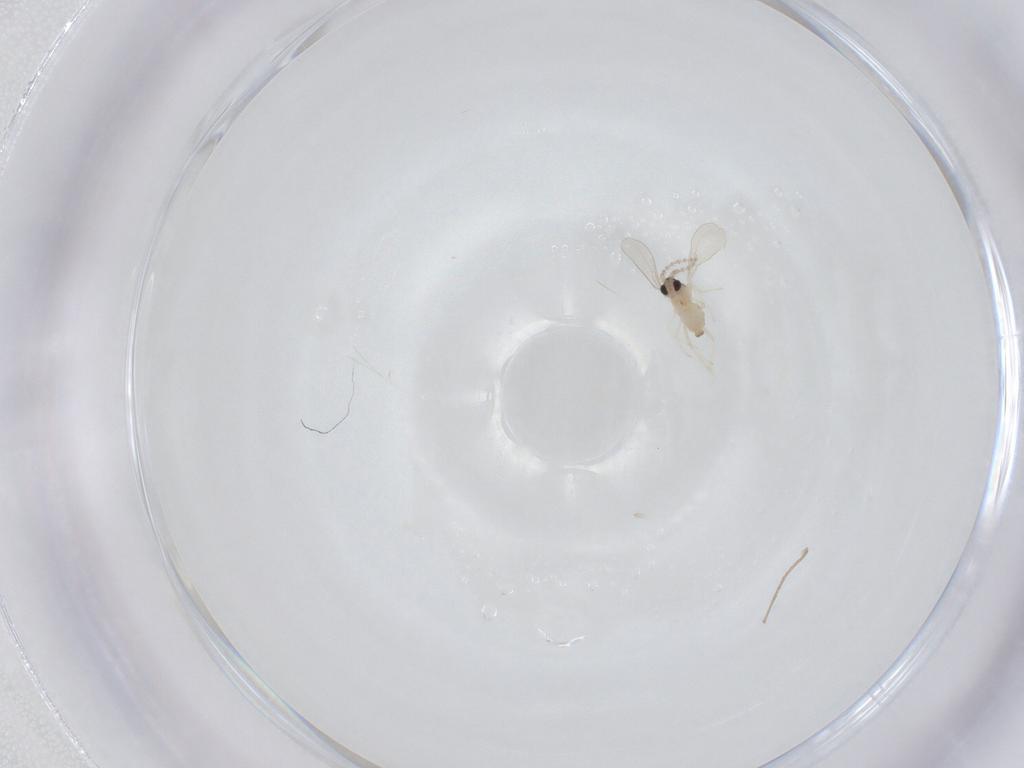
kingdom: Animalia
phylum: Arthropoda
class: Insecta
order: Diptera
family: Cecidomyiidae
